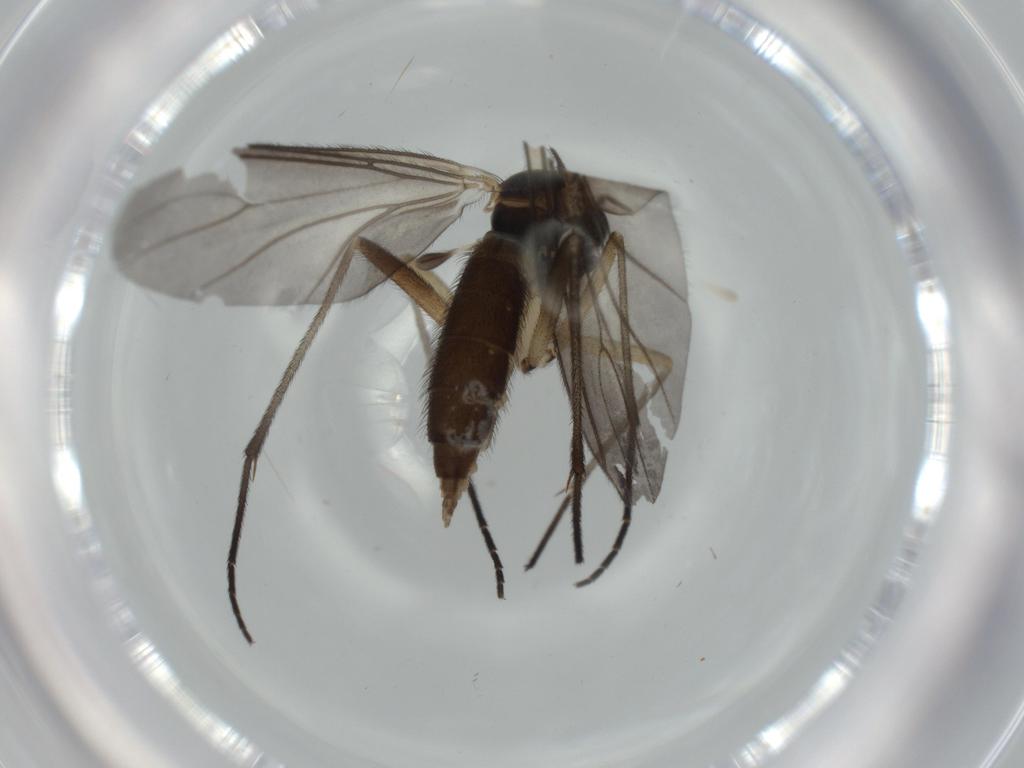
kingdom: Animalia
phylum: Arthropoda
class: Insecta
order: Diptera
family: Sciaridae
